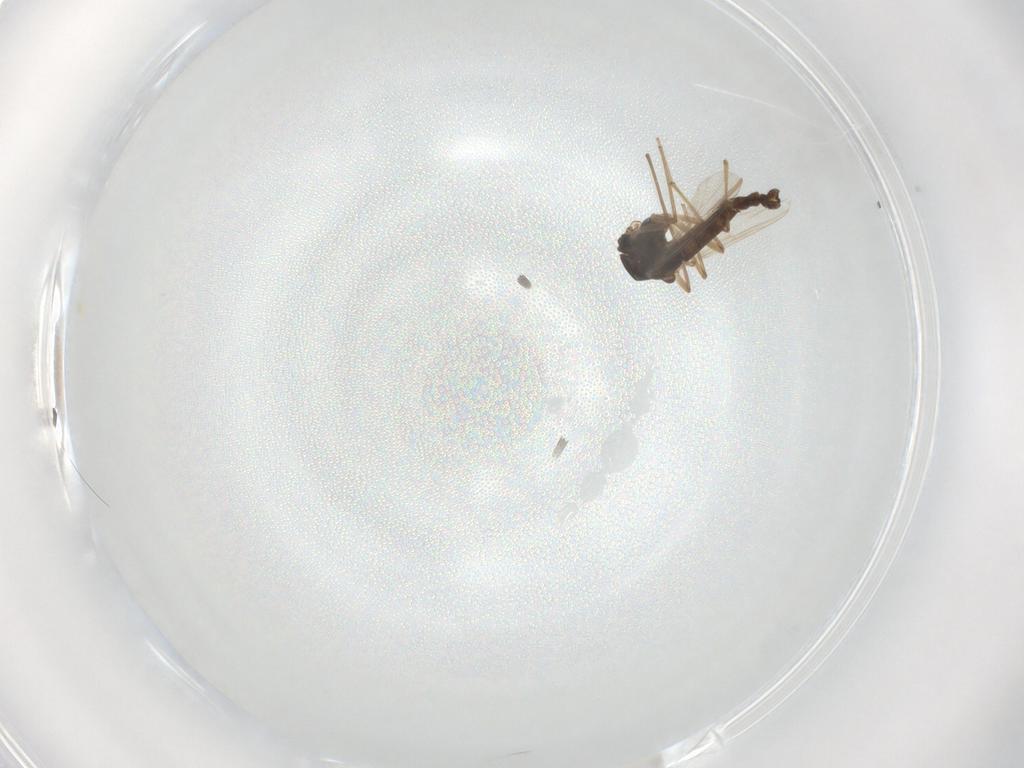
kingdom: Animalia
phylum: Arthropoda
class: Insecta
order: Diptera
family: Chironomidae
